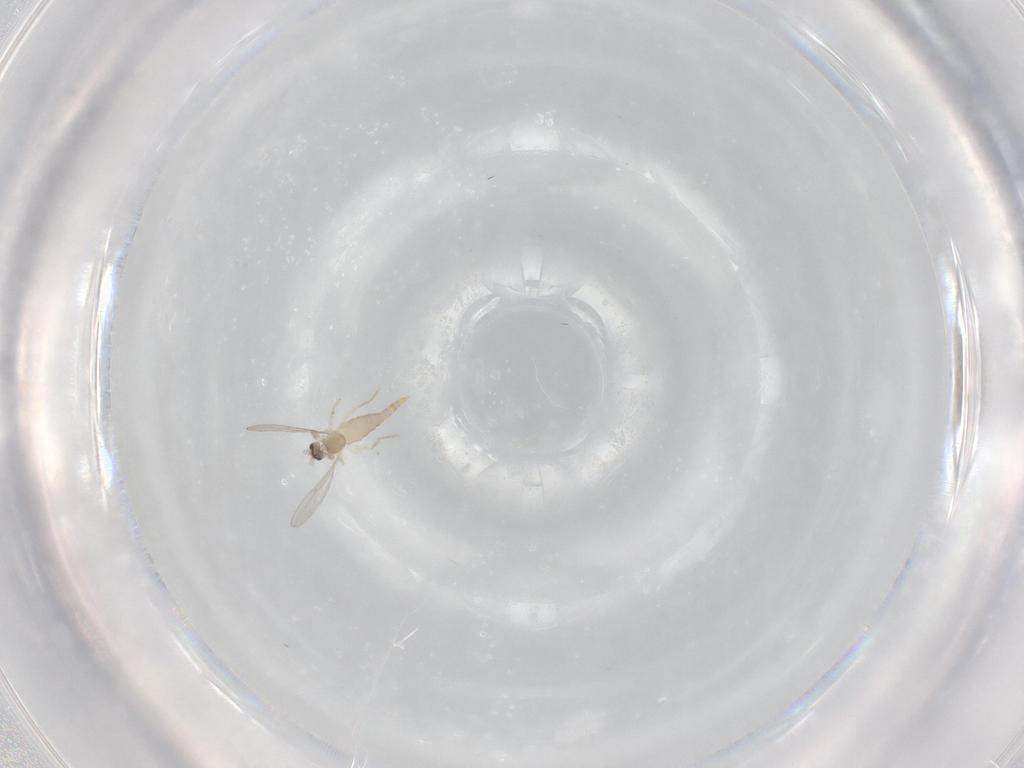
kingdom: Animalia
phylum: Arthropoda
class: Insecta
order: Diptera
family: Cecidomyiidae
